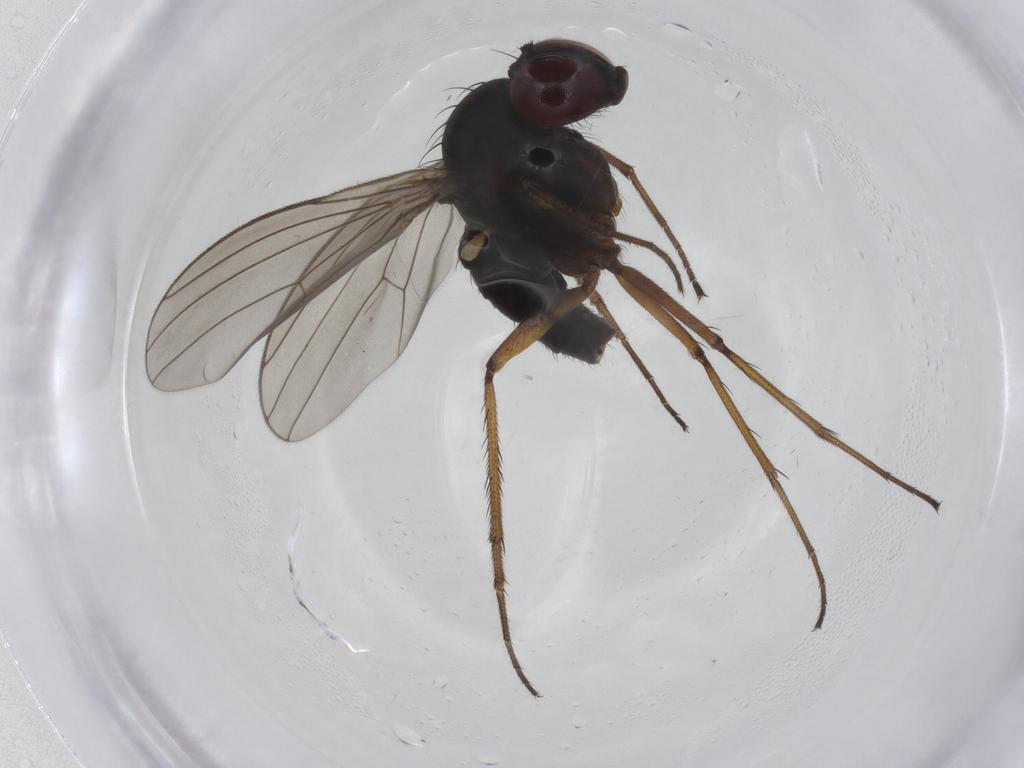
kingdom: Animalia
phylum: Arthropoda
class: Insecta
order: Diptera
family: Dolichopodidae
